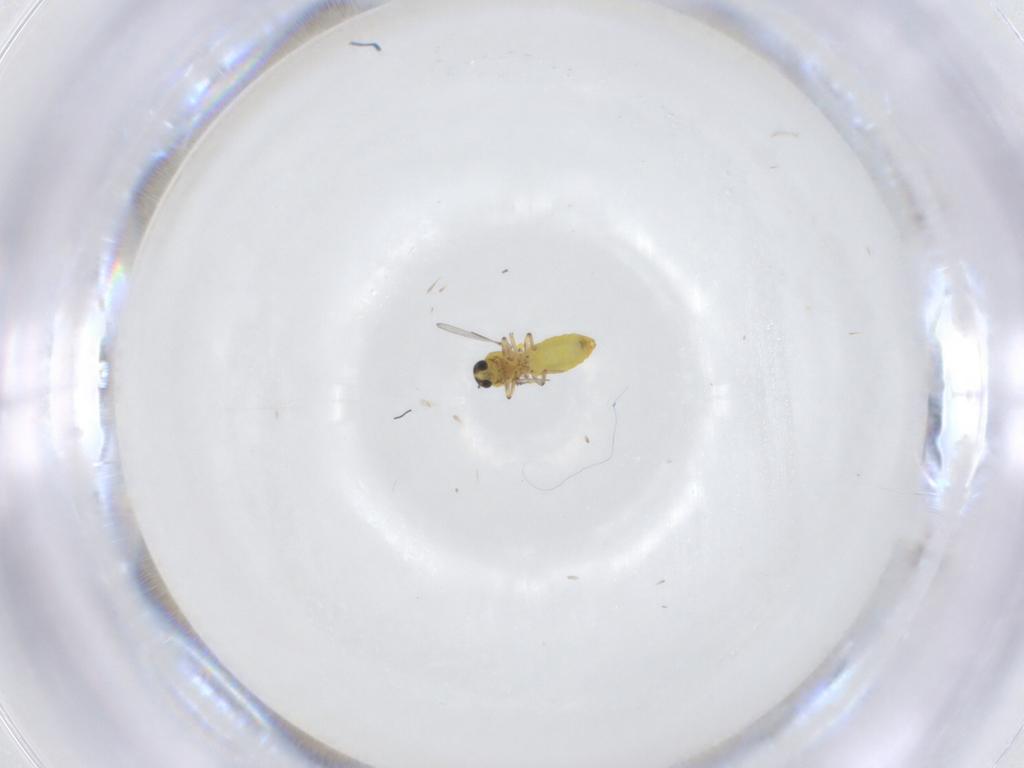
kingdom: Animalia
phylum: Arthropoda
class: Insecta
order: Diptera
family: Ceratopogonidae
